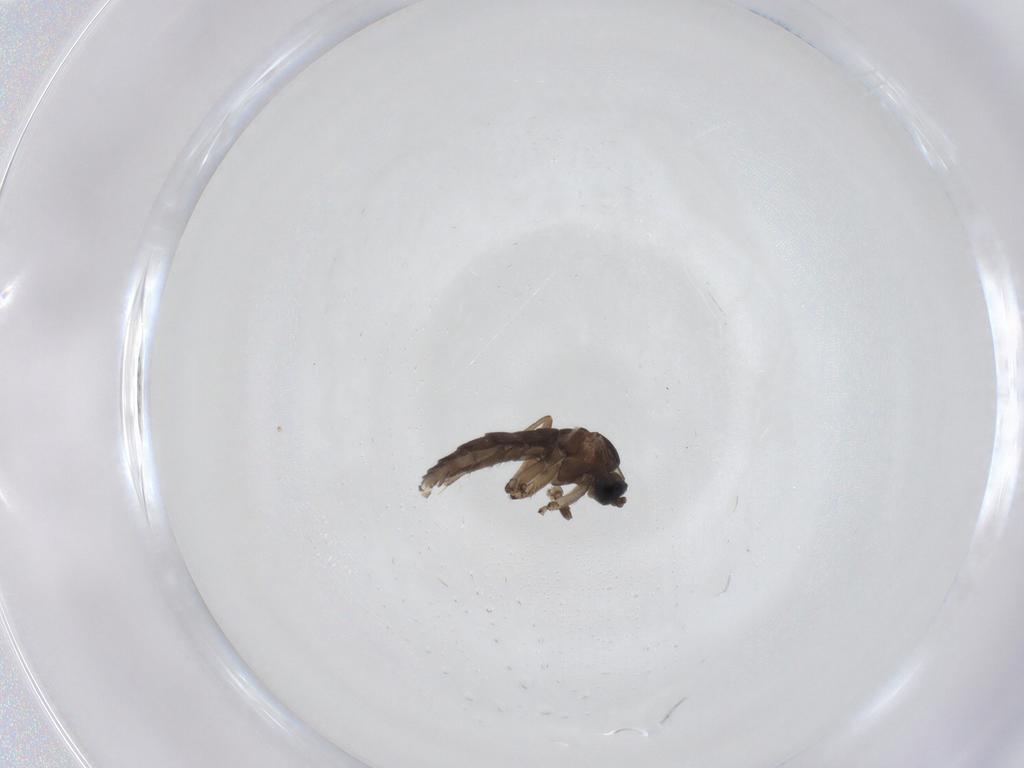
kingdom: Animalia
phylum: Arthropoda
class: Insecta
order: Diptera
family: Sciaridae
